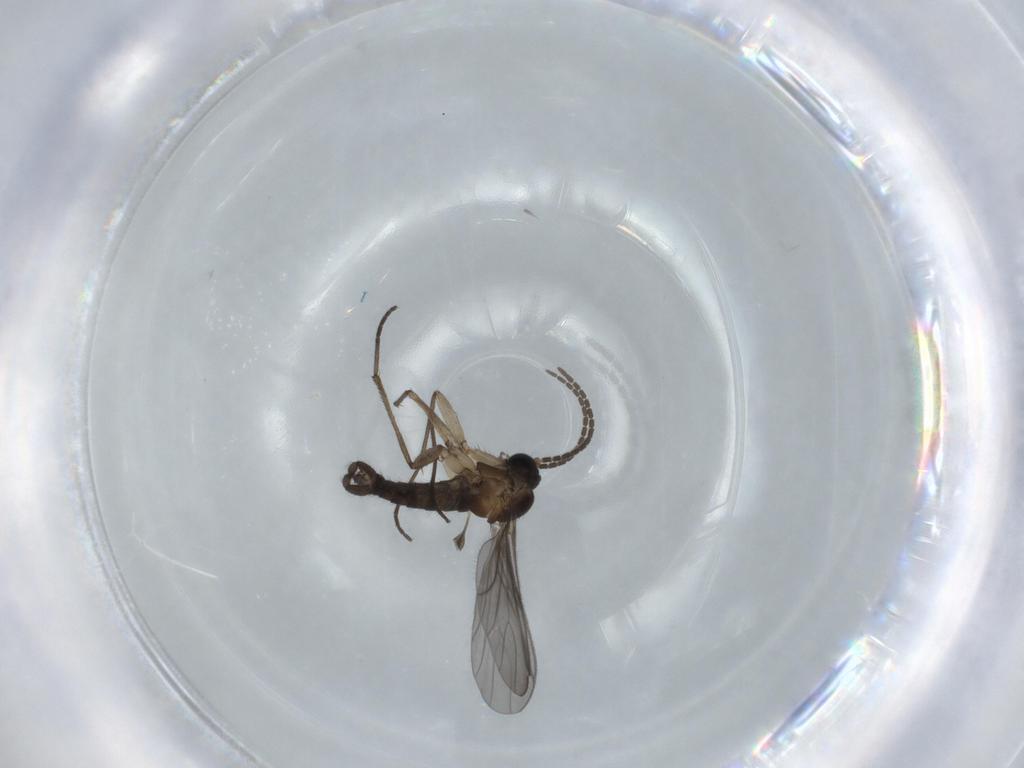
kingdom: Animalia
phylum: Arthropoda
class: Insecta
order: Diptera
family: Sciaridae
